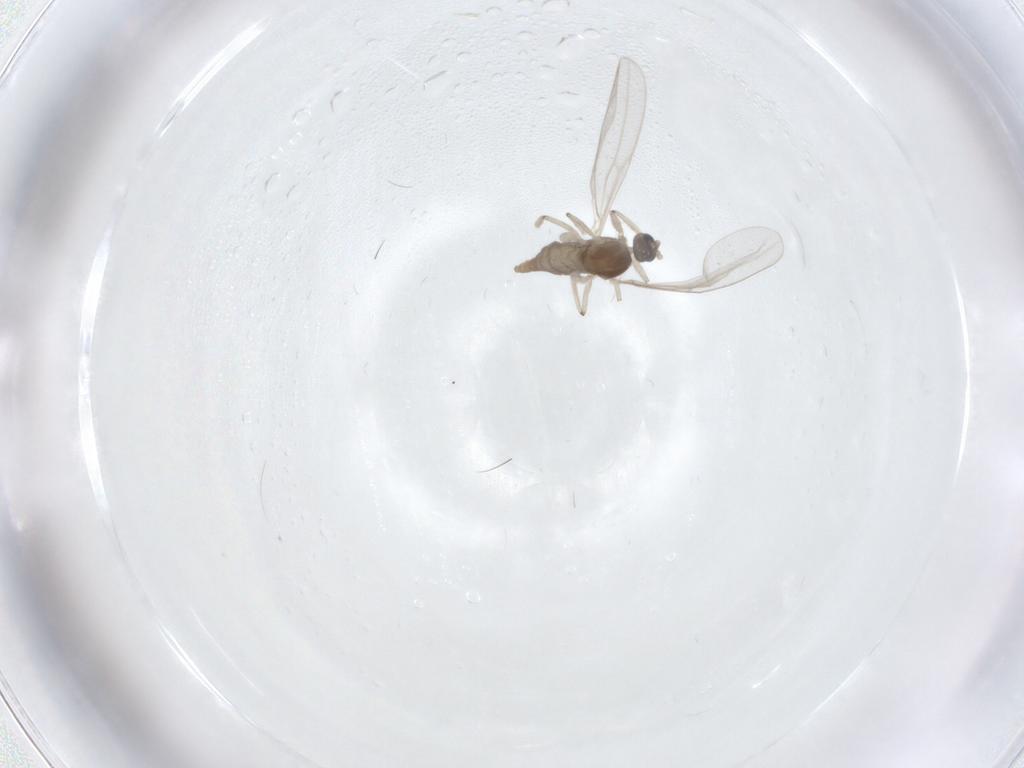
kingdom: Animalia
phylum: Arthropoda
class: Insecta
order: Diptera
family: Cecidomyiidae
